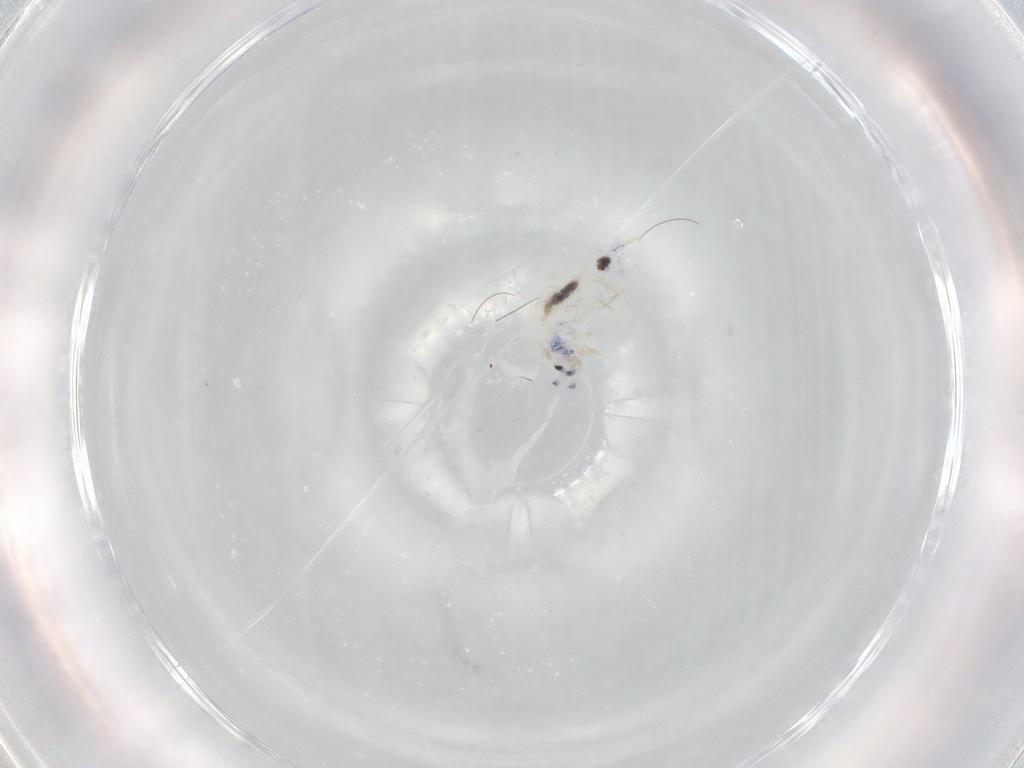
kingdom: Animalia
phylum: Arthropoda
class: Collembola
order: Entomobryomorpha
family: Entomobryidae
